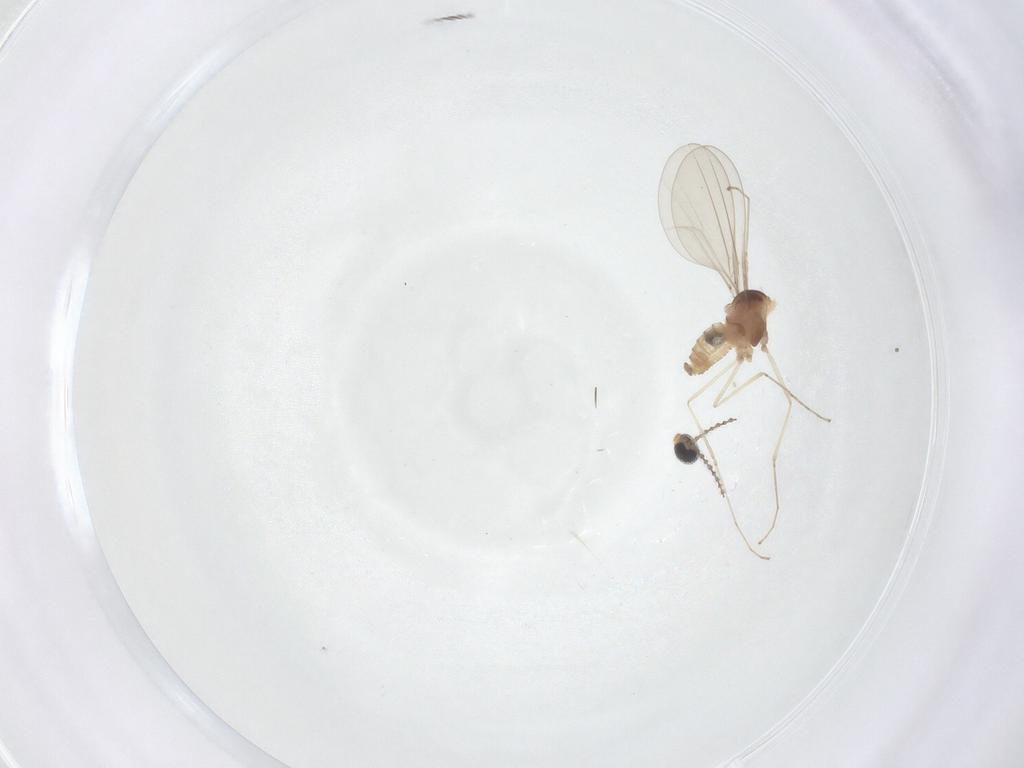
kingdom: Animalia
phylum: Arthropoda
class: Insecta
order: Diptera
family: Cecidomyiidae
